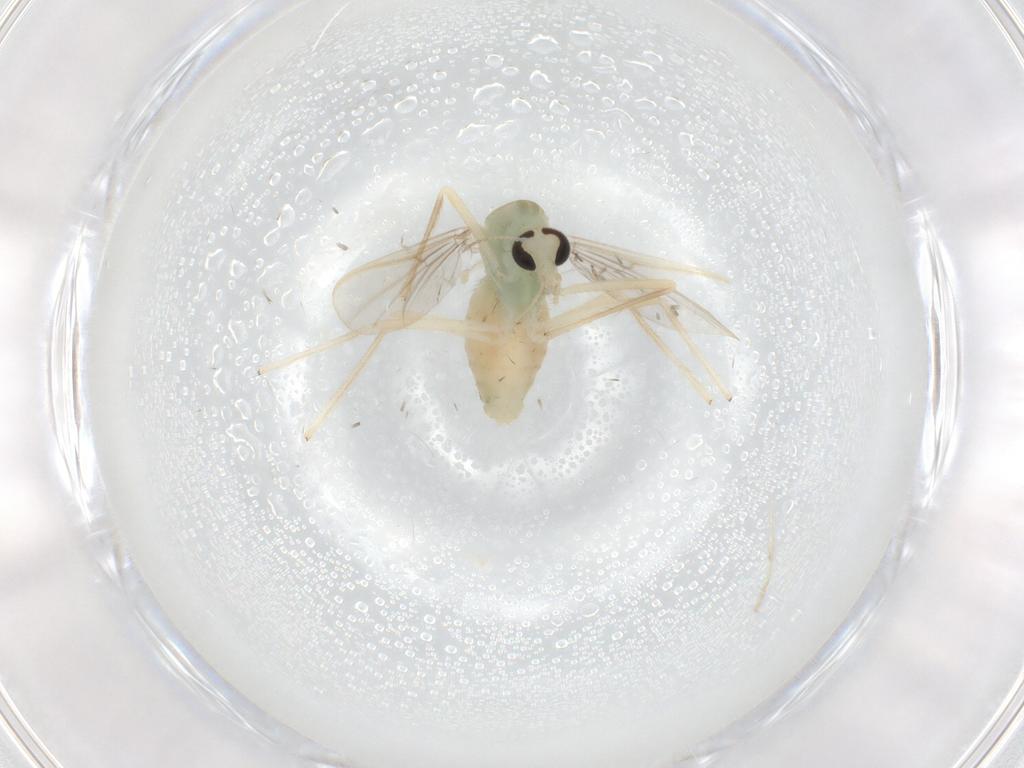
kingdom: Animalia
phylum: Arthropoda
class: Insecta
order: Diptera
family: Chironomidae
